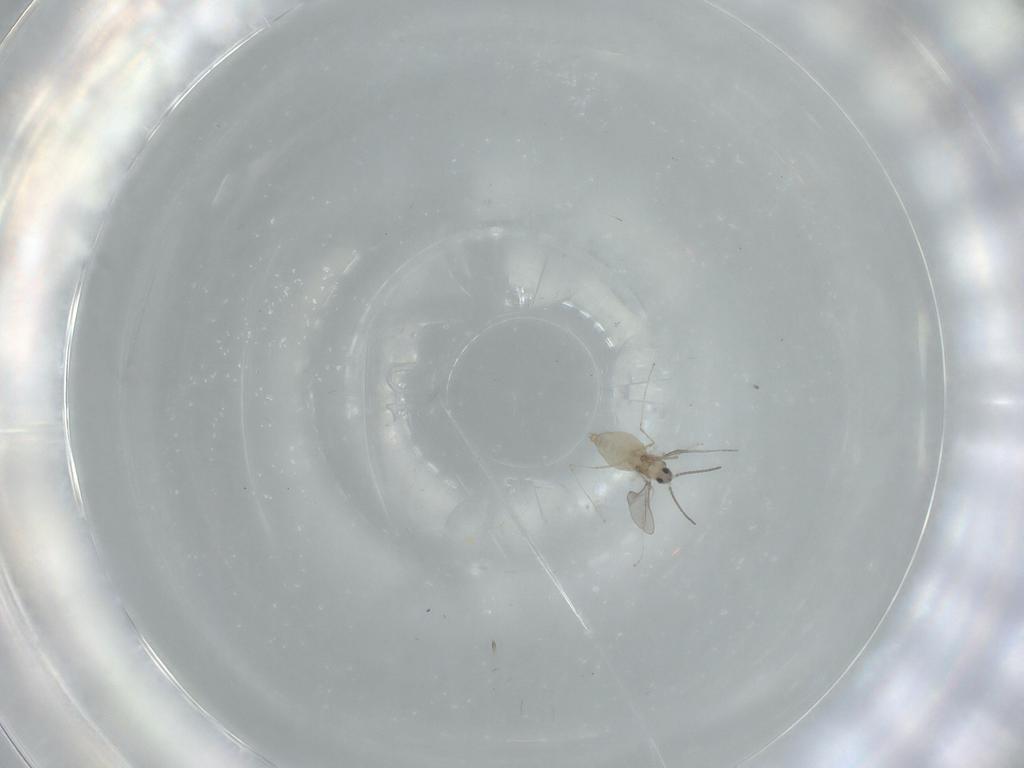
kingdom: Animalia
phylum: Arthropoda
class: Insecta
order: Diptera
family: Cecidomyiidae
